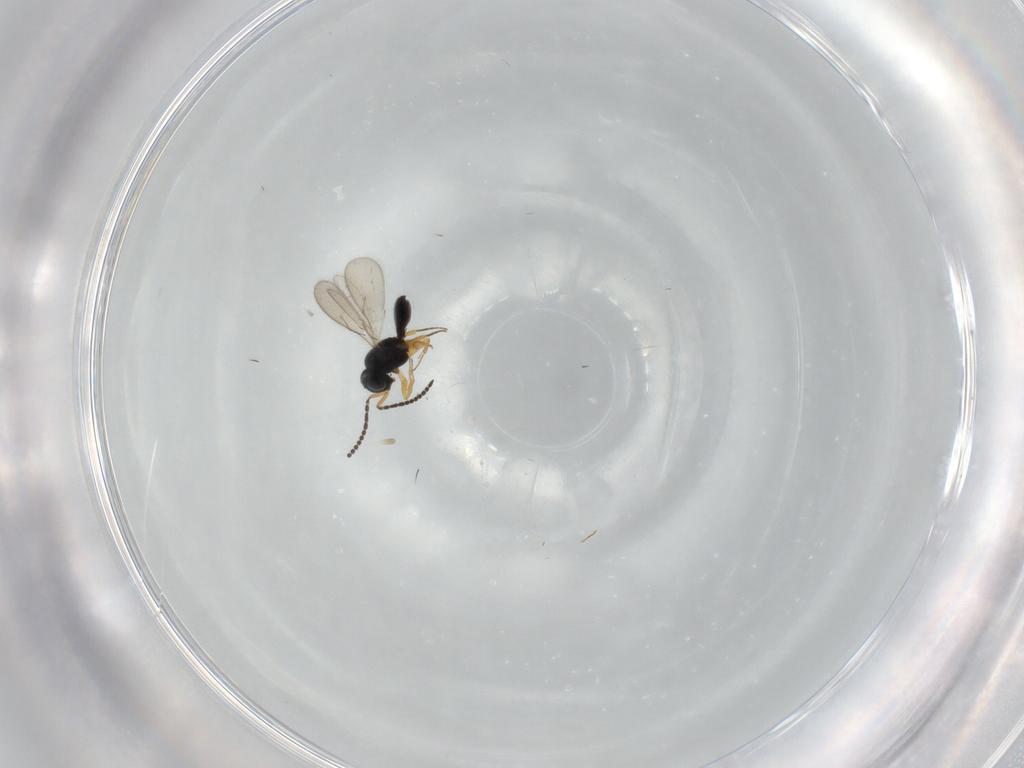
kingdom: Animalia
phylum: Arthropoda
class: Insecta
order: Hymenoptera
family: Scelionidae
